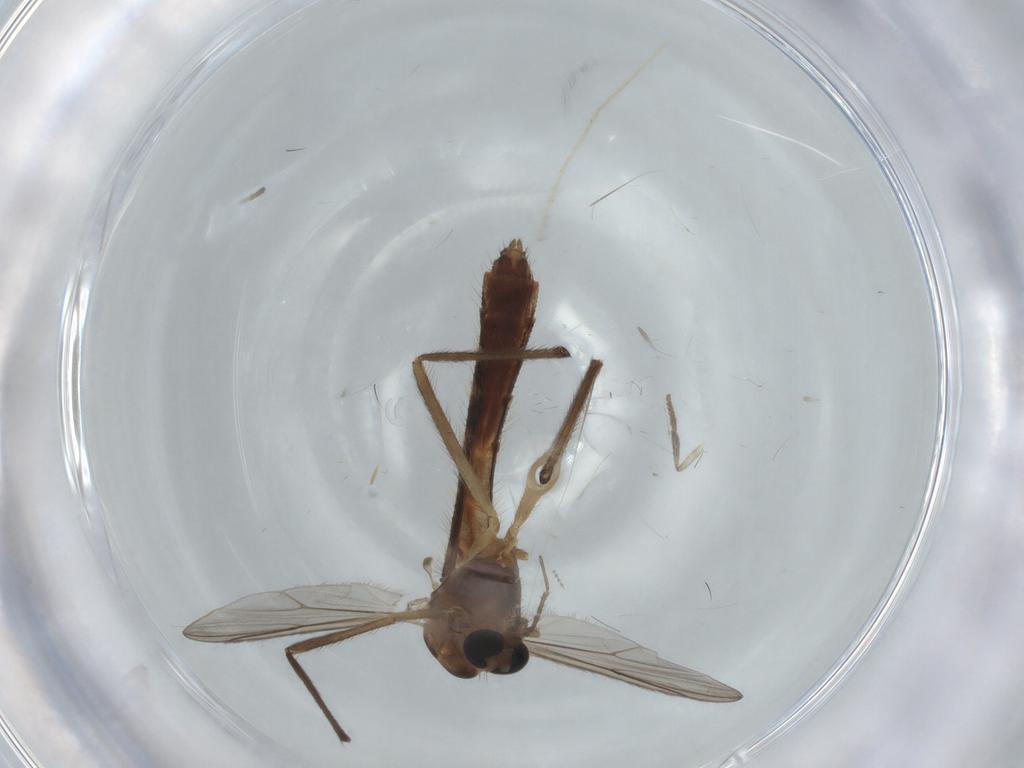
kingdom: Animalia
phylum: Arthropoda
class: Insecta
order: Diptera
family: Chironomidae
